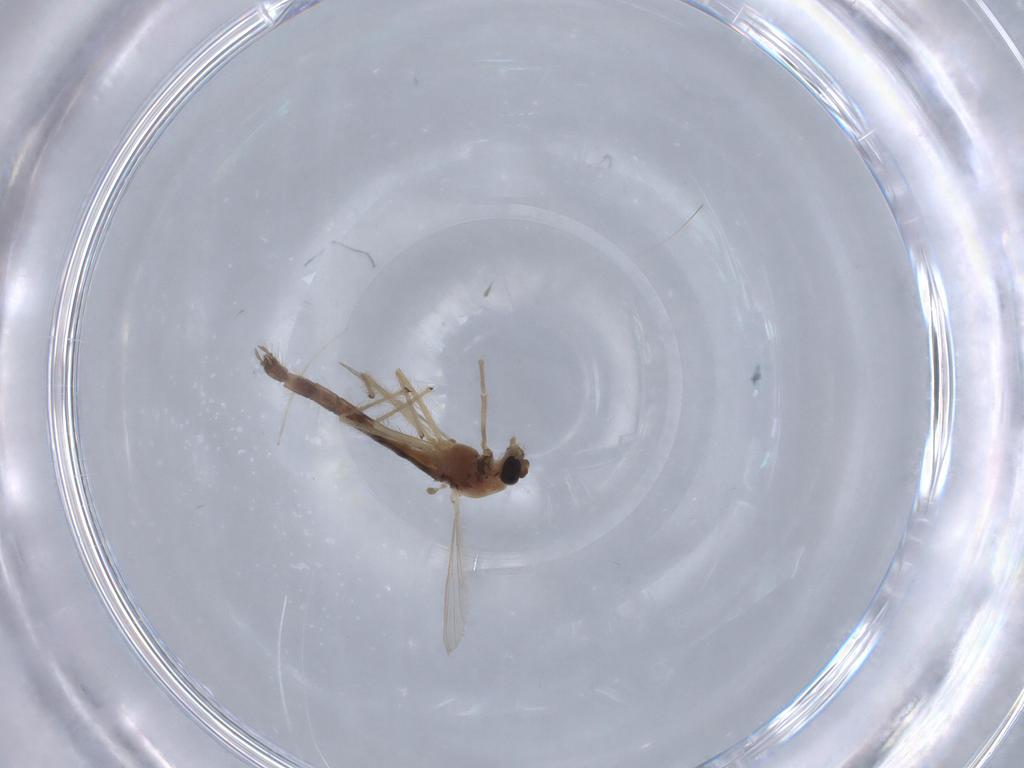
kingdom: Animalia
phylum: Arthropoda
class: Insecta
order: Diptera
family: Chironomidae
